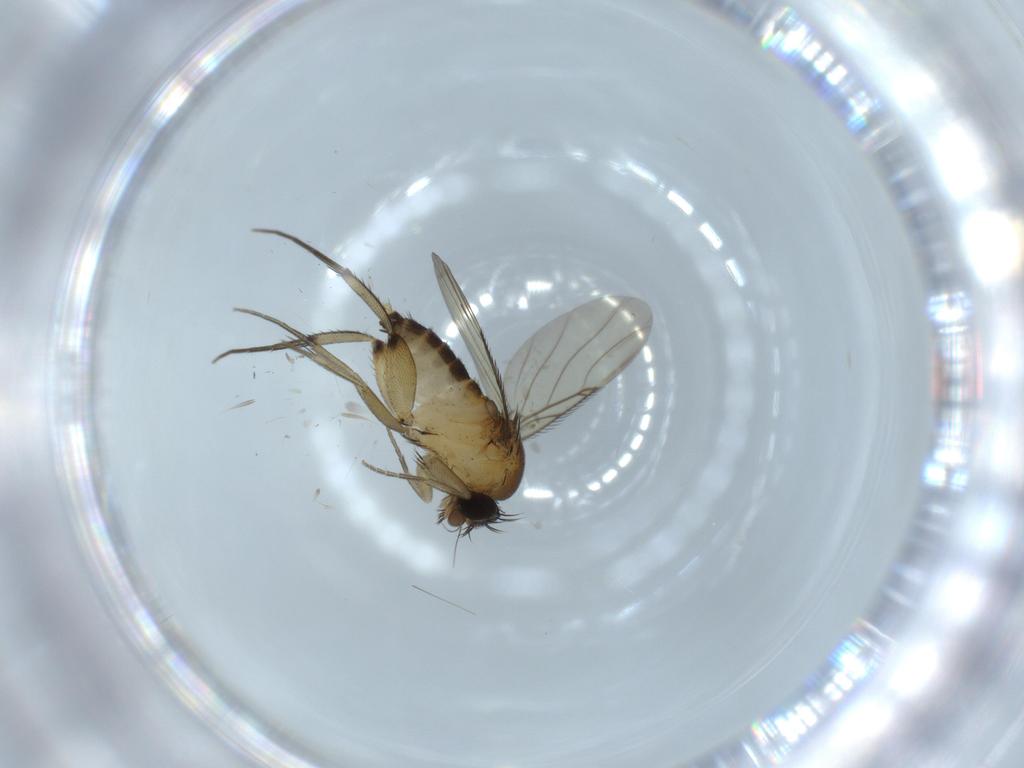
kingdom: Animalia
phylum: Arthropoda
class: Insecta
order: Diptera
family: Phoridae
